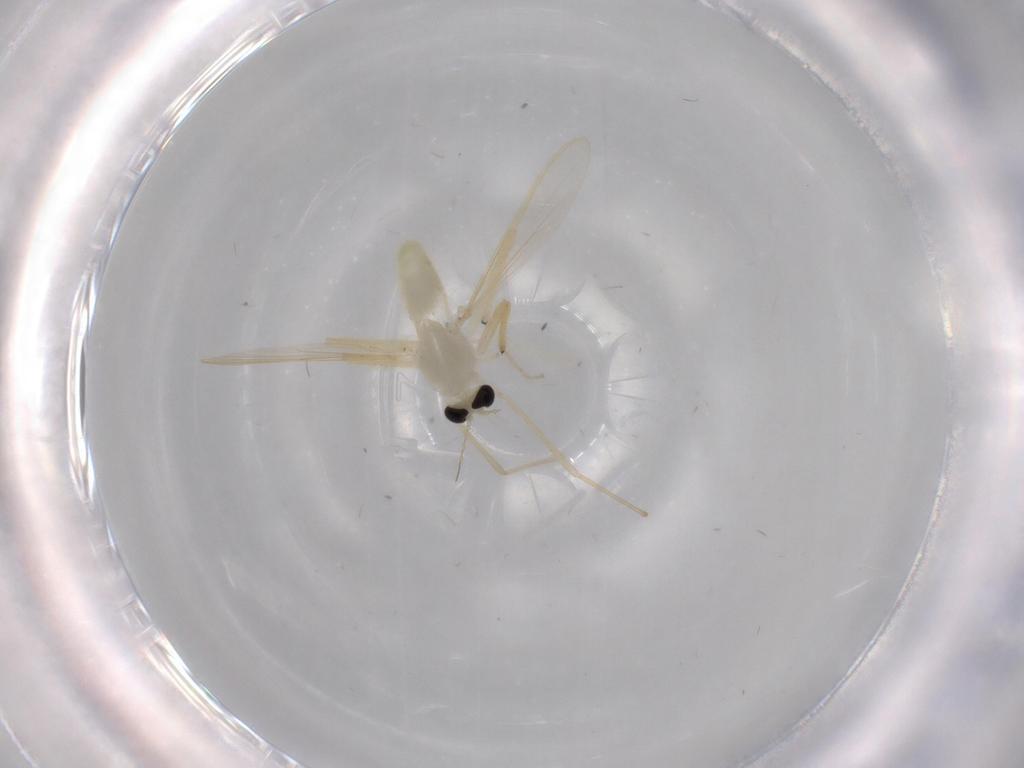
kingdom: Animalia
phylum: Arthropoda
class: Insecta
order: Diptera
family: Chironomidae
